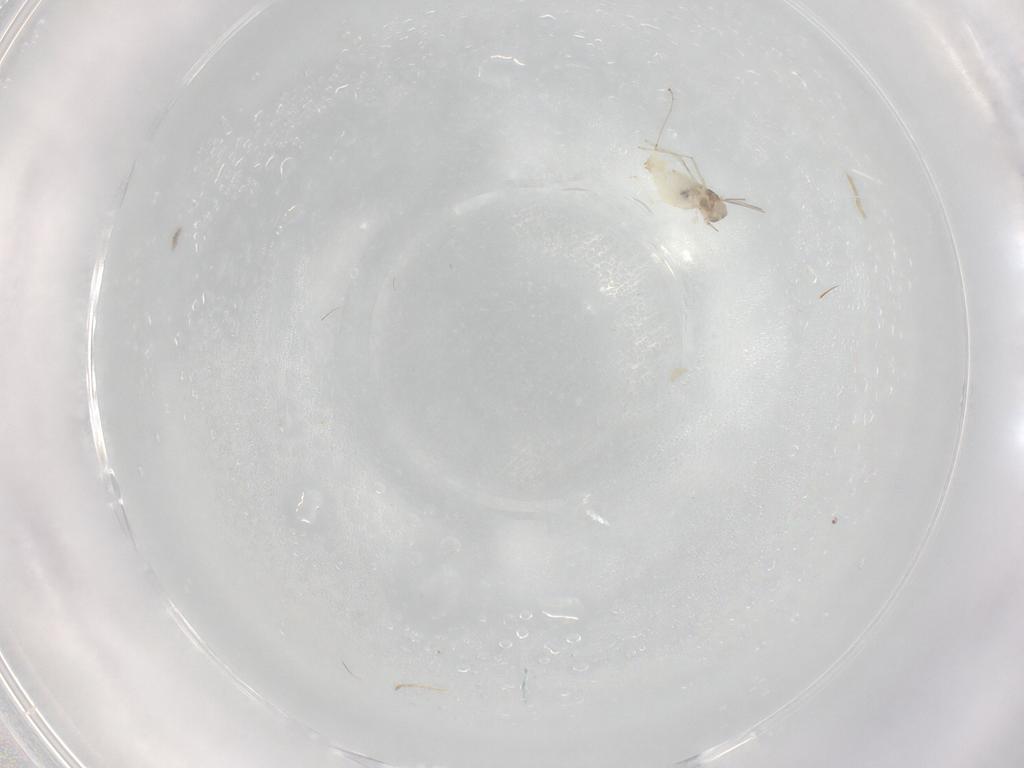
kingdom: Animalia
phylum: Arthropoda
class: Insecta
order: Diptera
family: Cecidomyiidae
